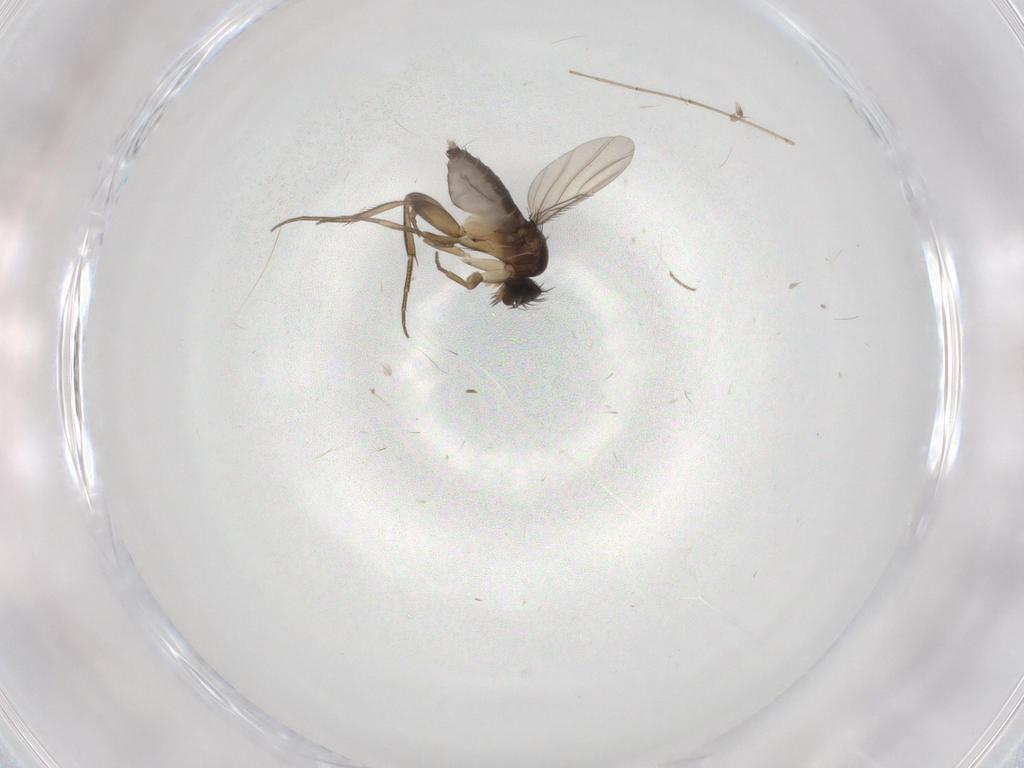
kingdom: Animalia
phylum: Arthropoda
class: Insecta
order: Diptera
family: Phoridae
